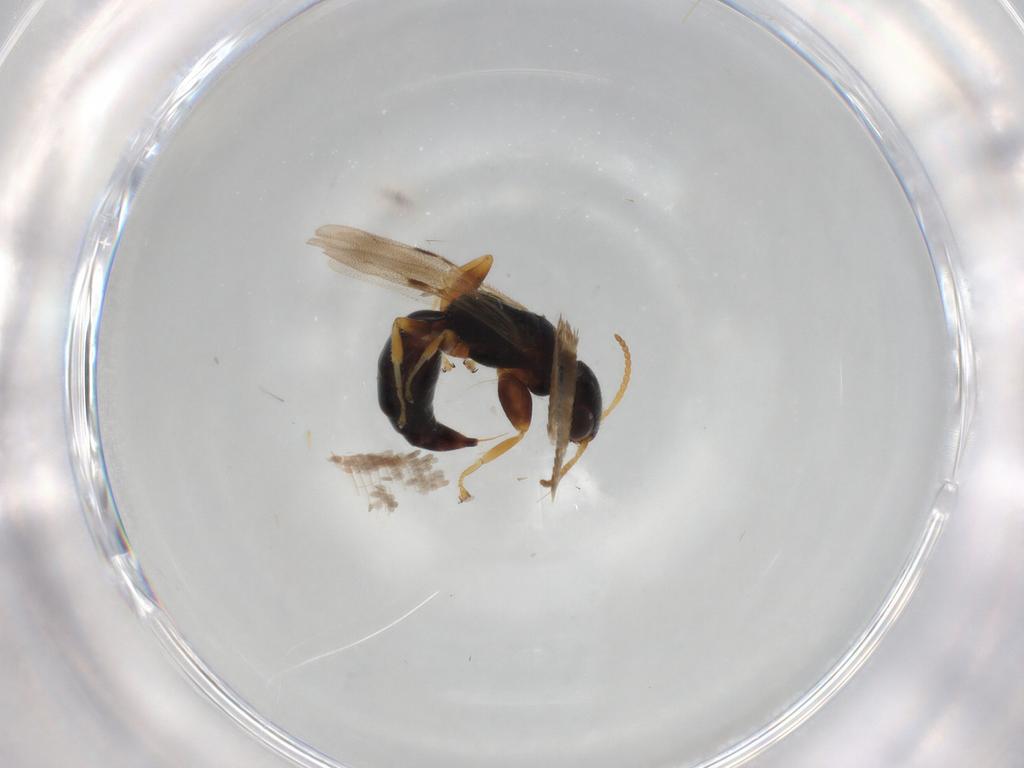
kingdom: Animalia
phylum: Arthropoda
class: Insecta
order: Hymenoptera
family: Bethylidae
